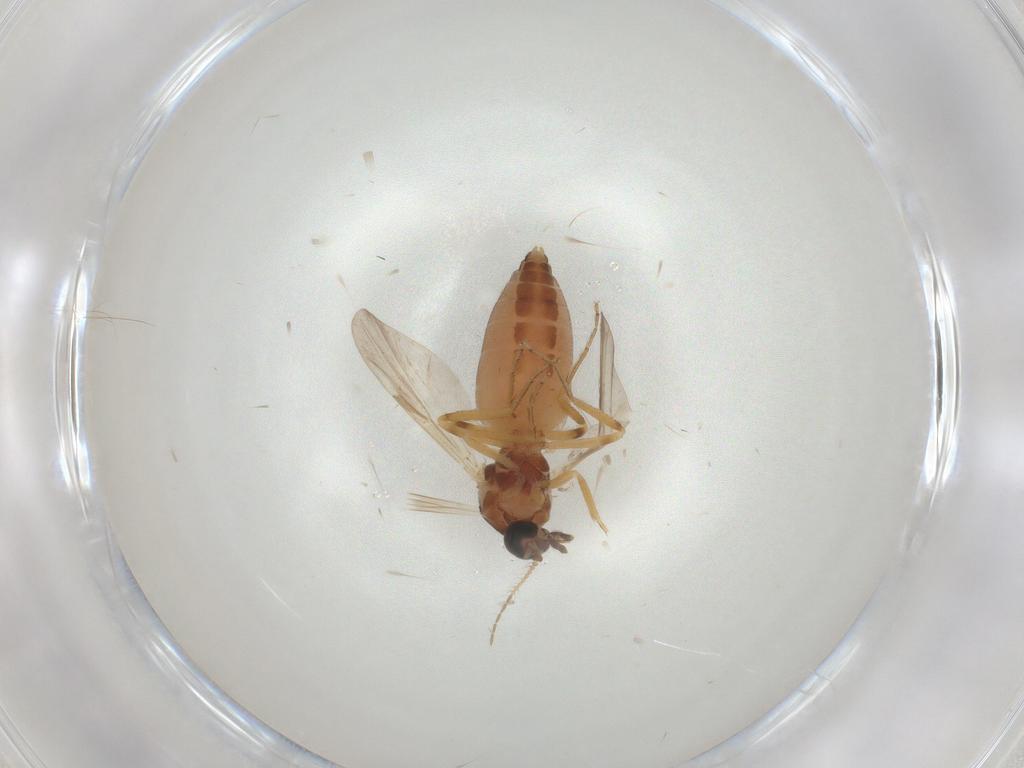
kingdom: Animalia
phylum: Arthropoda
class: Insecta
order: Diptera
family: Ceratopogonidae
